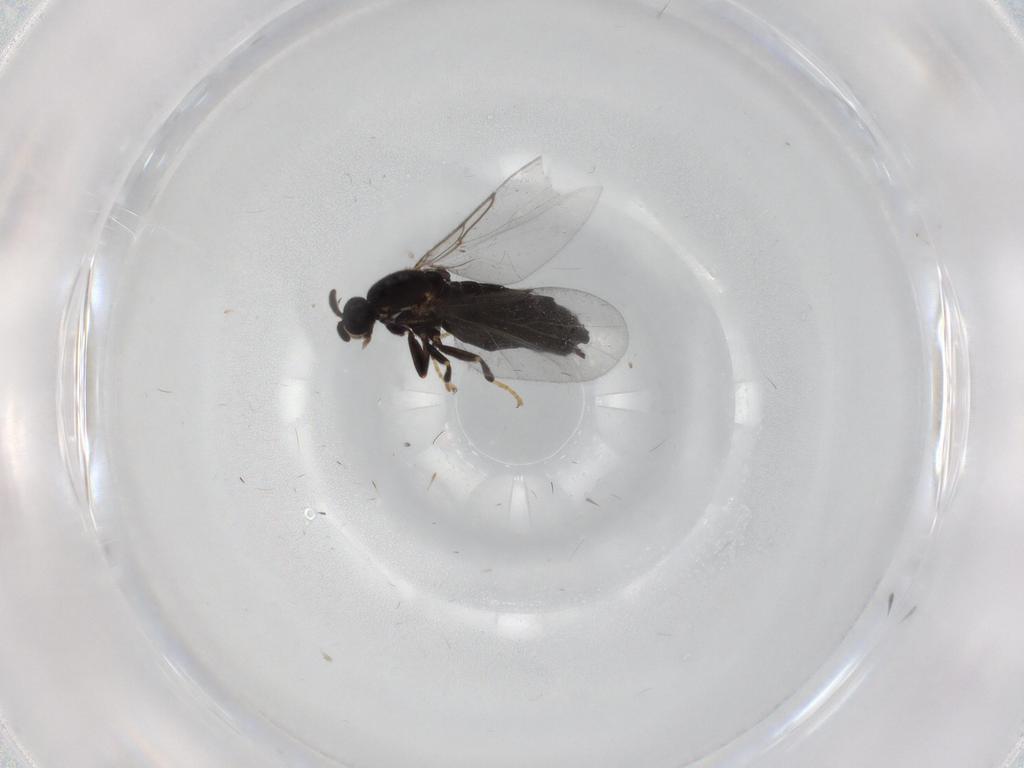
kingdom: Animalia
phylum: Arthropoda
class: Insecta
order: Diptera
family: Scatopsidae
